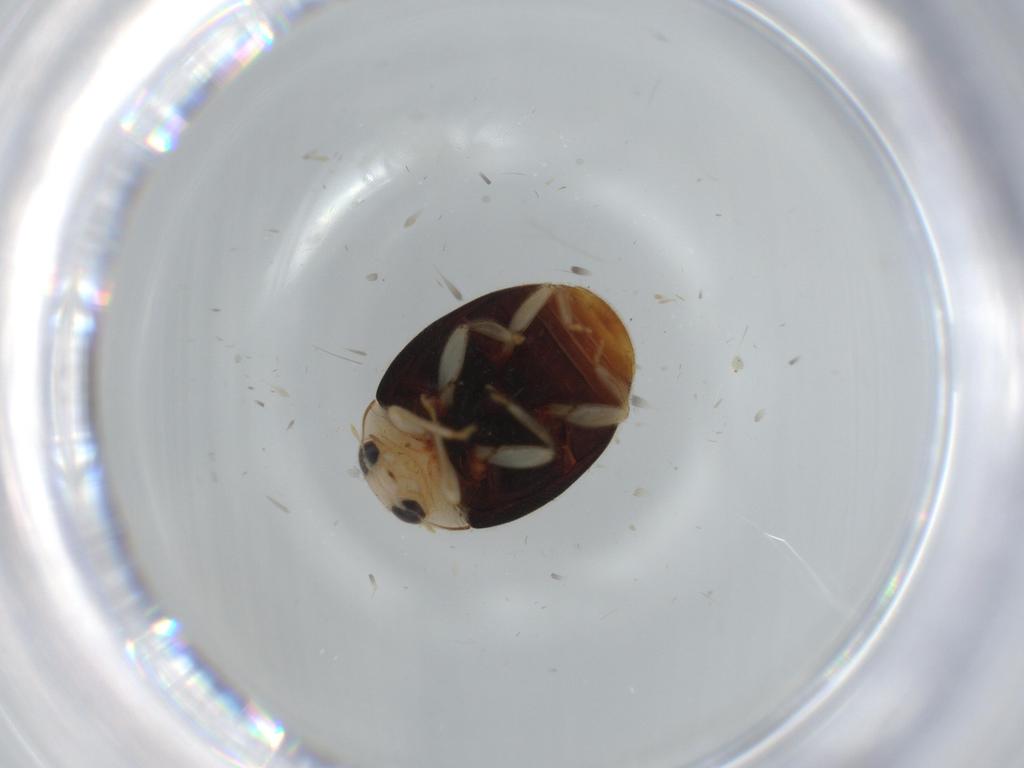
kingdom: Animalia
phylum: Arthropoda
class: Insecta
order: Coleoptera
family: Coccinellidae
